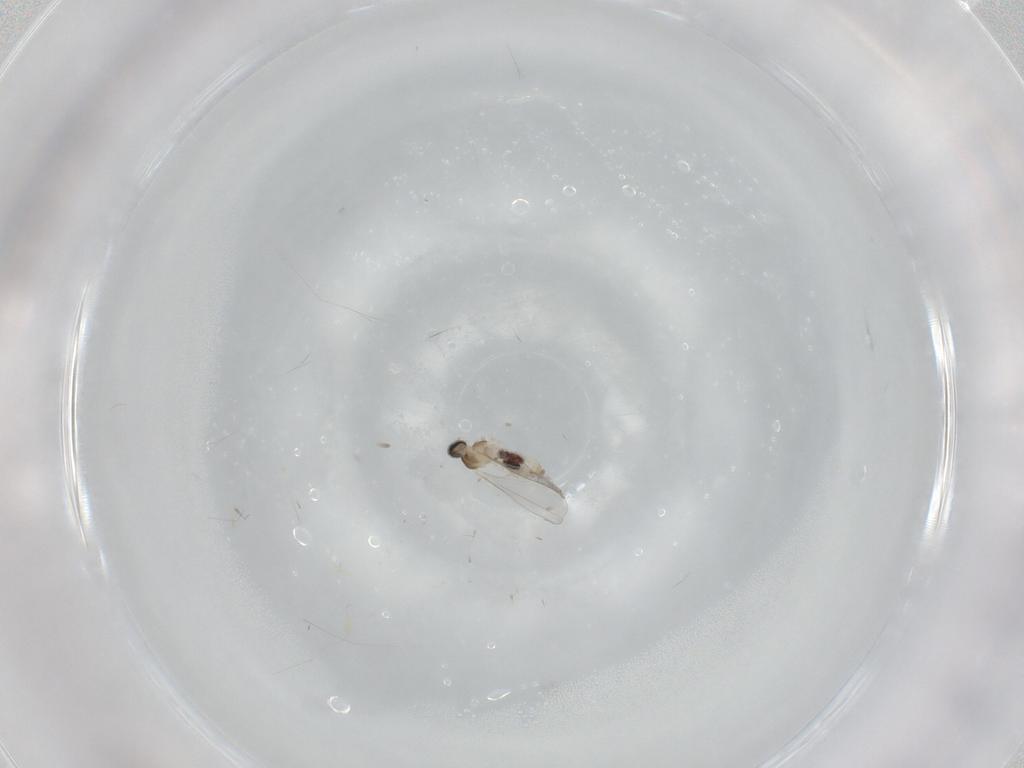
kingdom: Animalia
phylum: Arthropoda
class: Insecta
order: Diptera
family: Cecidomyiidae
